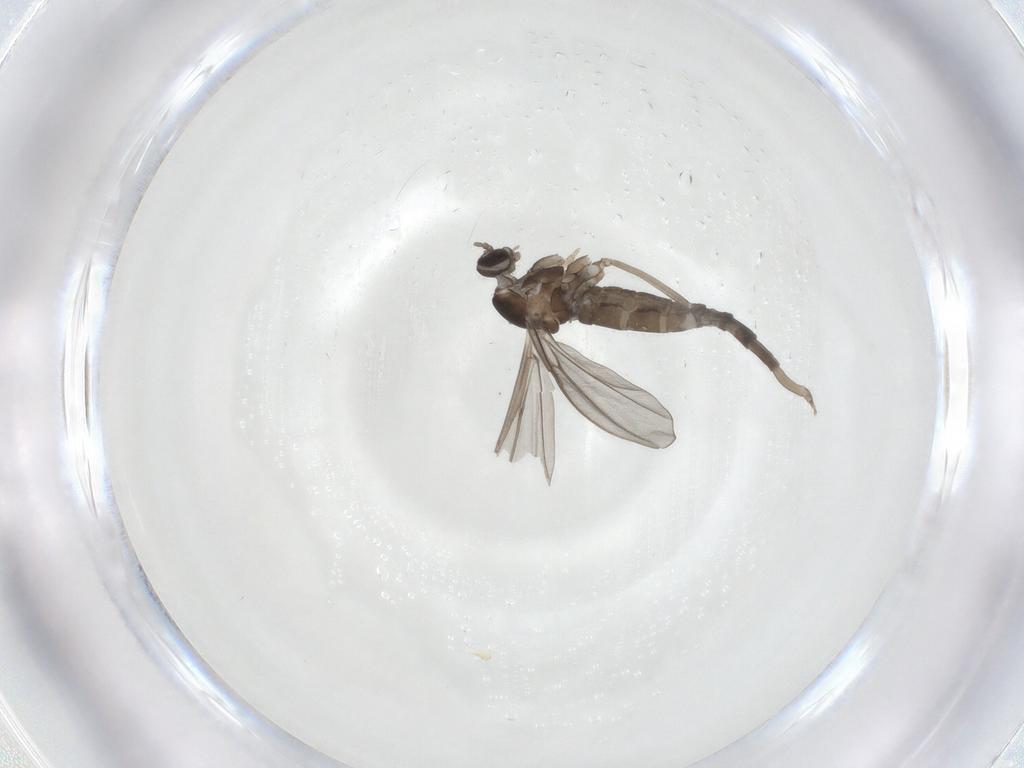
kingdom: Animalia
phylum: Arthropoda
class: Insecta
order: Diptera
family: Cecidomyiidae
